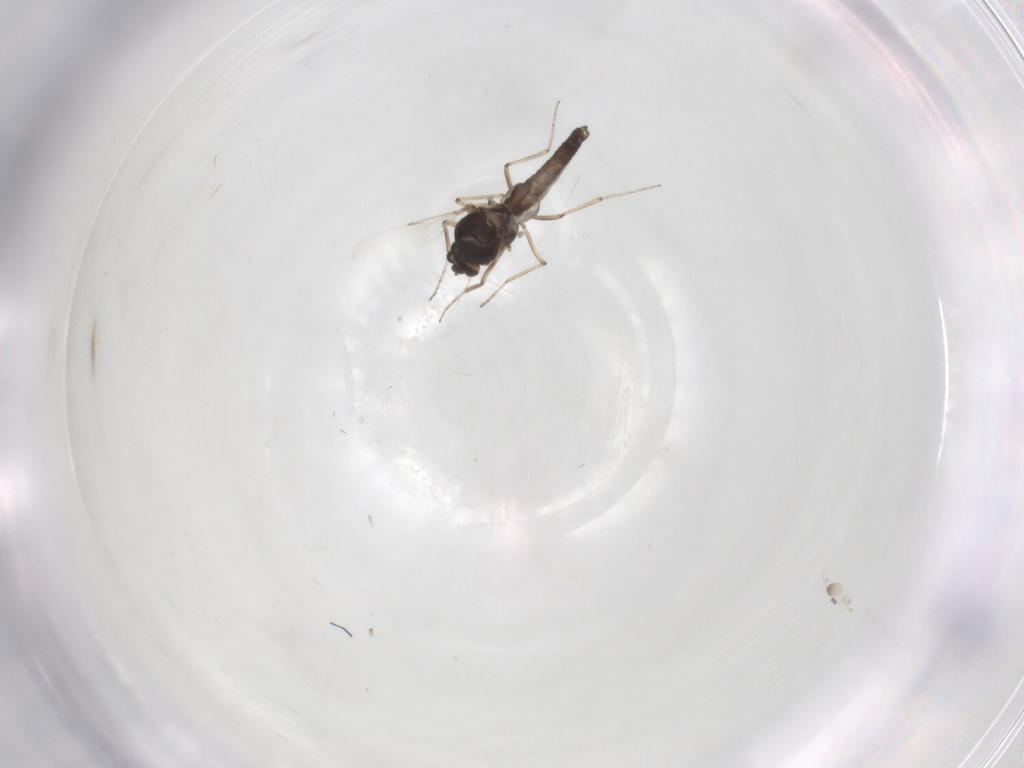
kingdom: Animalia
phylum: Arthropoda
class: Insecta
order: Diptera
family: Ceratopogonidae
